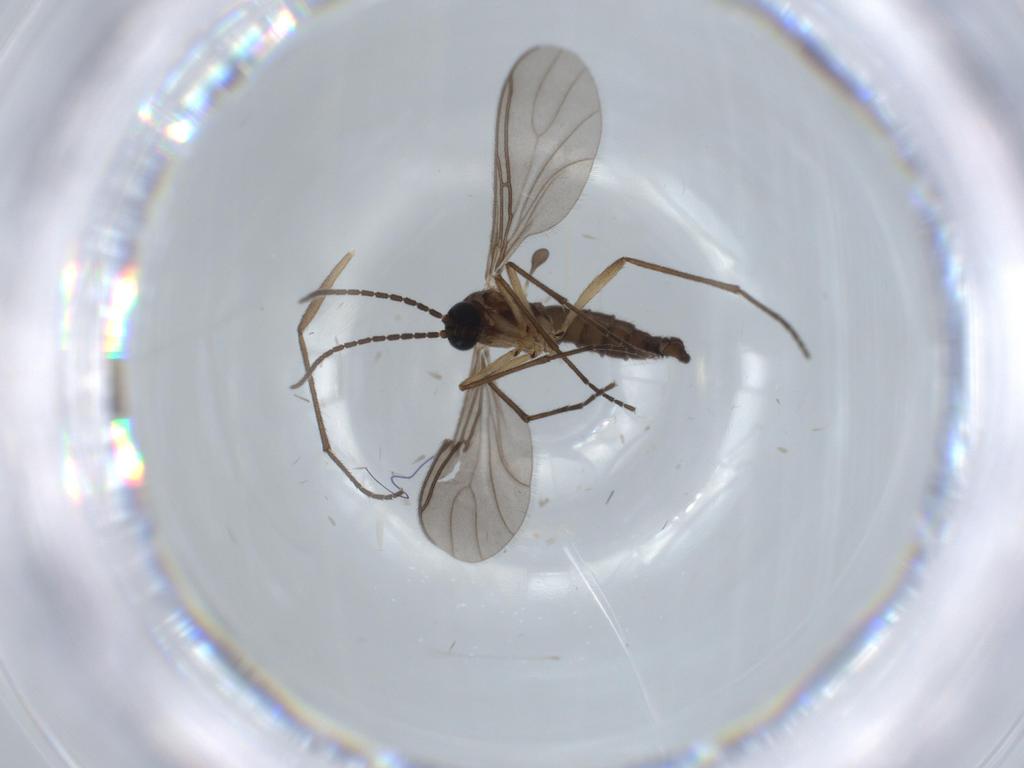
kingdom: Animalia
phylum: Arthropoda
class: Insecta
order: Diptera
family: Sciaridae
